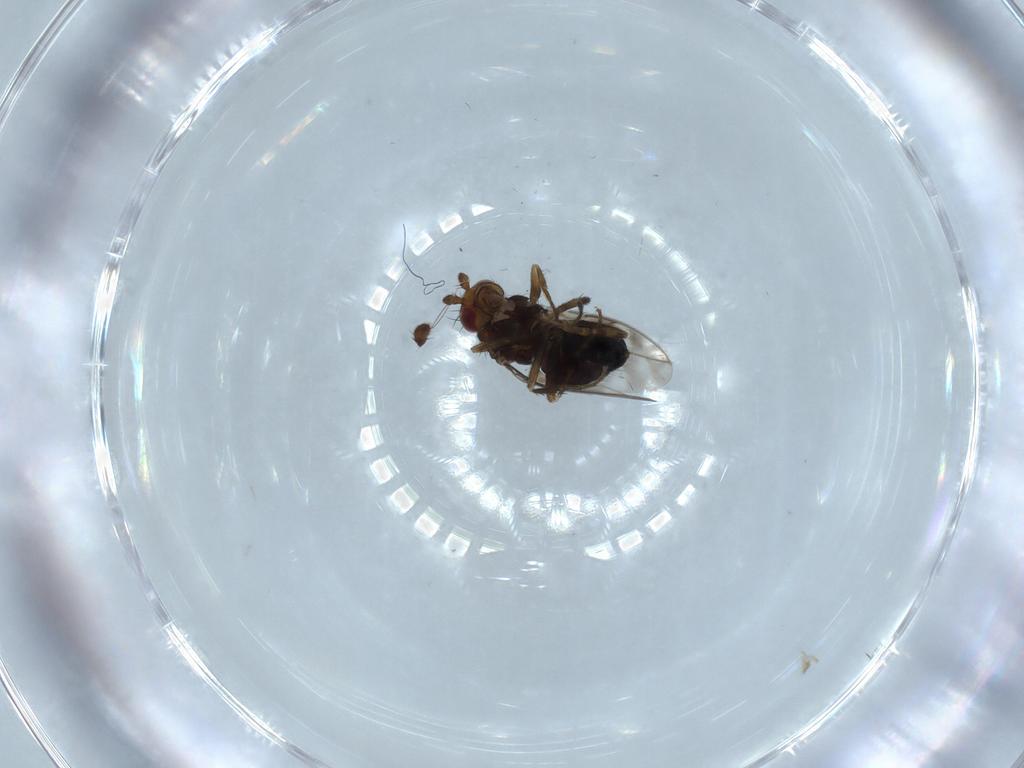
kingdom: Animalia
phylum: Arthropoda
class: Insecta
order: Diptera
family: Sphaeroceridae
